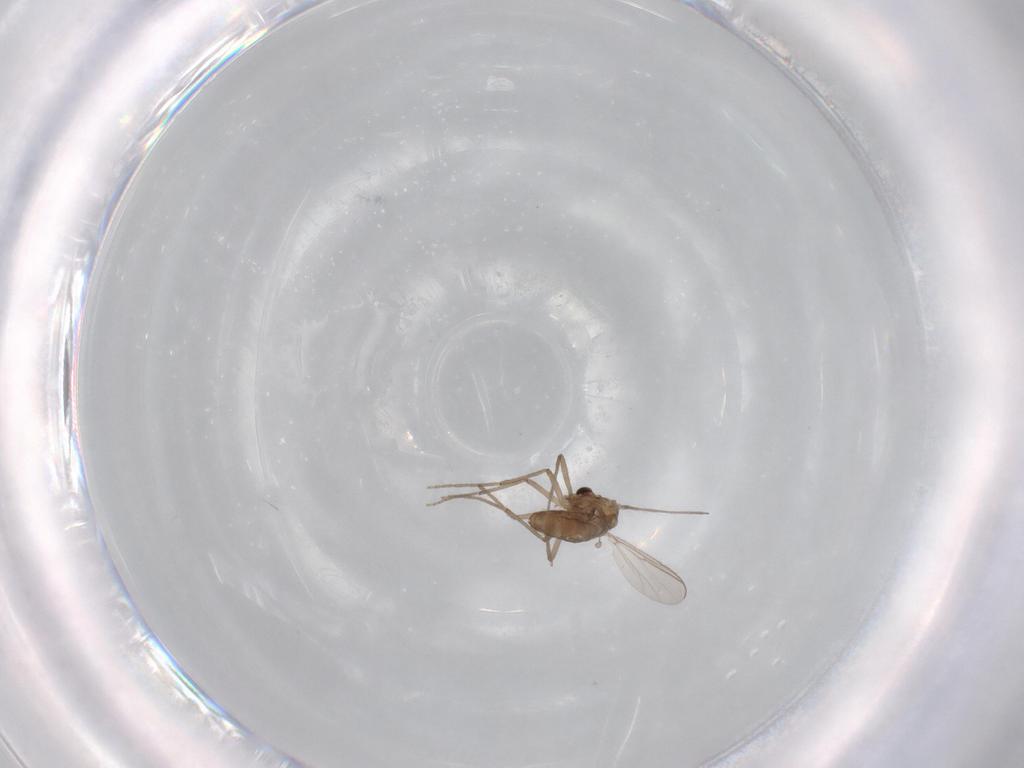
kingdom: Animalia
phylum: Arthropoda
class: Insecta
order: Diptera
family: Chironomidae
